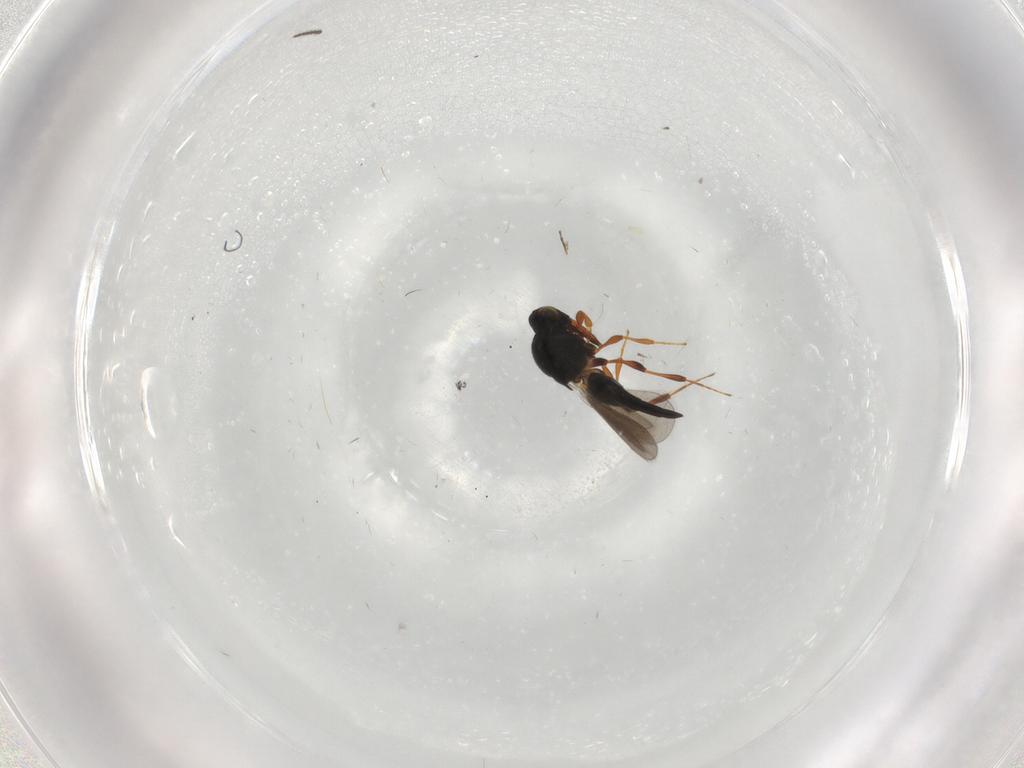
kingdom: Animalia
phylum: Arthropoda
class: Insecta
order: Hymenoptera
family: Platygastridae
